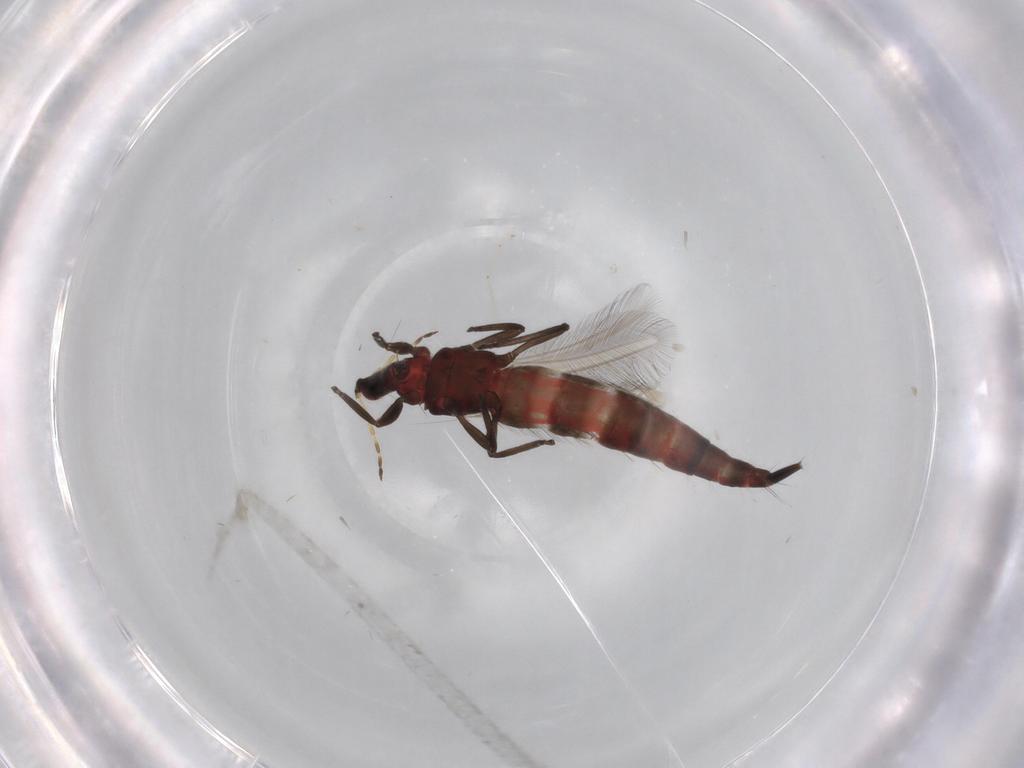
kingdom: Animalia
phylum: Arthropoda
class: Insecta
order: Thysanoptera
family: Phlaeothripidae
